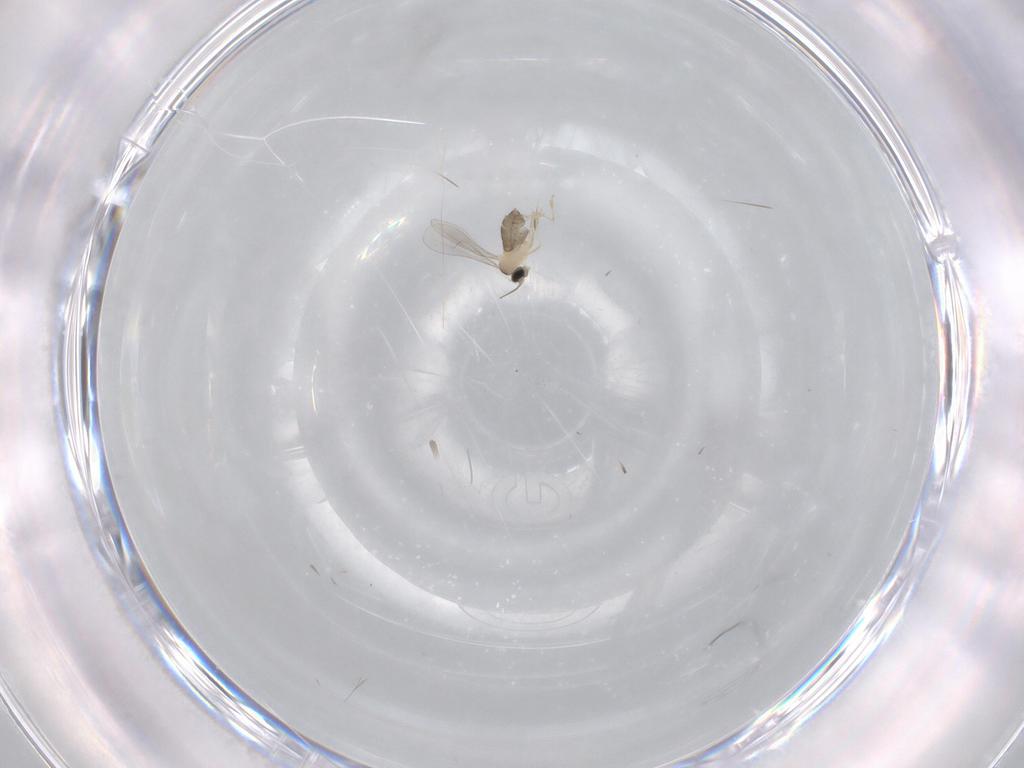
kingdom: Animalia
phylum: Arthropoda
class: Insecta
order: Diptera
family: Cecidomyiidae
